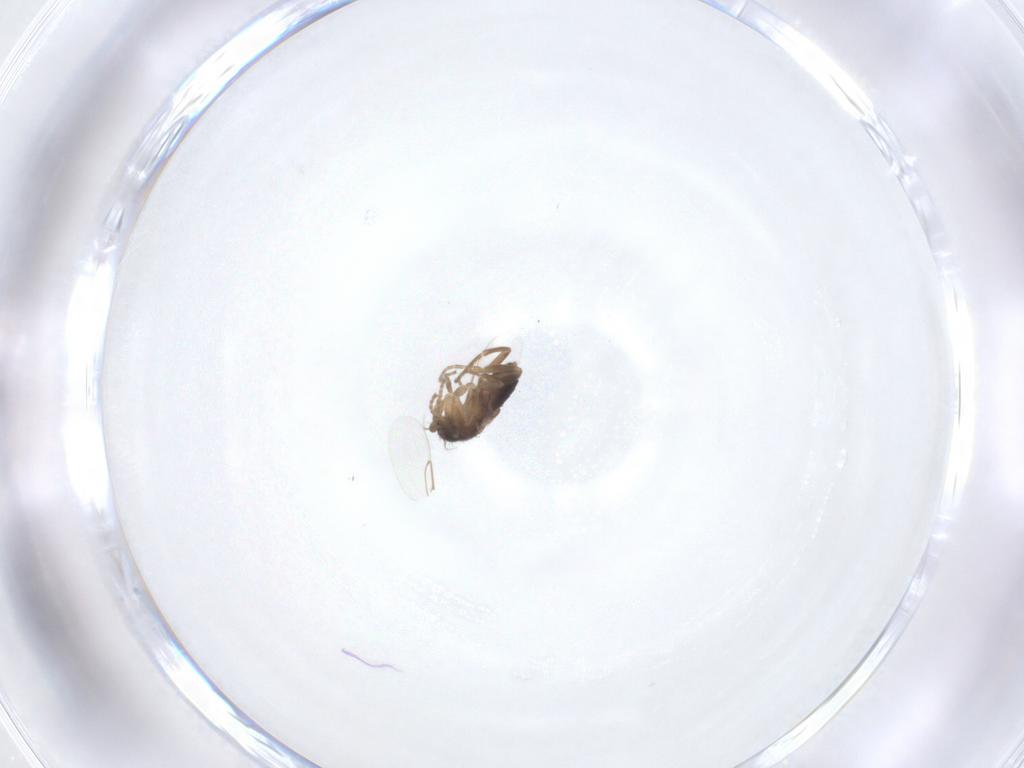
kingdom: Animalia
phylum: Arthropoda
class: Insecta
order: Diptera
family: Phoridae
